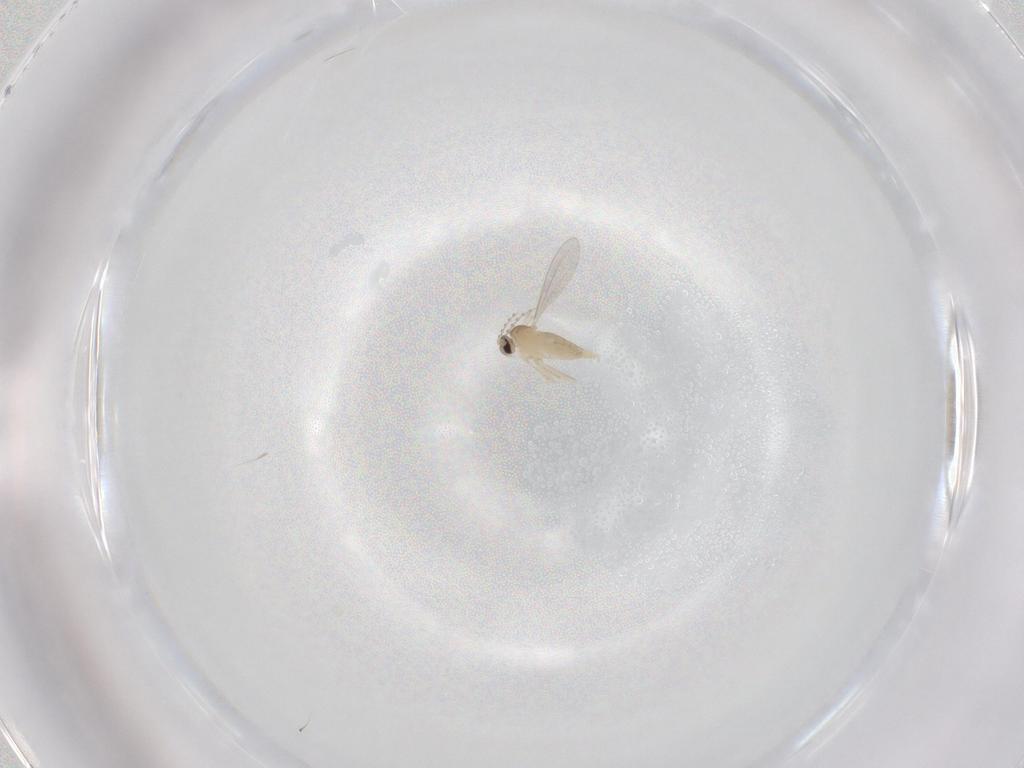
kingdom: Animalia
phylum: Arthropoda
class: Insecta
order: Diptera
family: Cecidomyiidae
